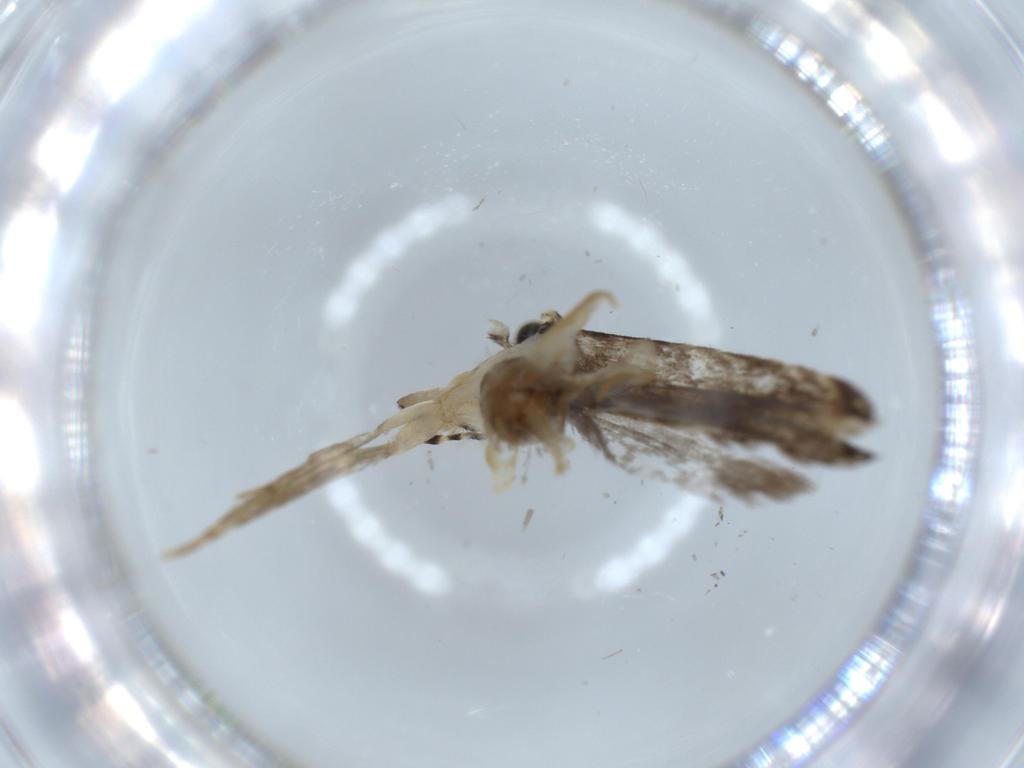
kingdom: Animalia
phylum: Arthropoda
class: Insecta
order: Lepidoptera
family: Tineidae
